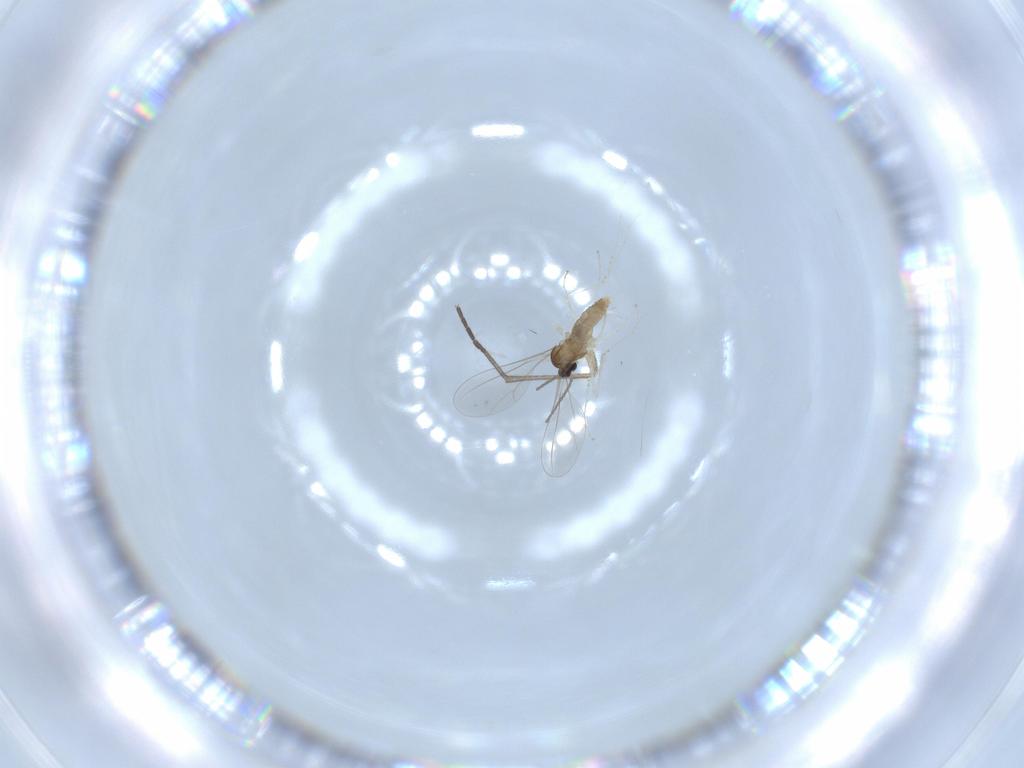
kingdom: Animalia
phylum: Arthropoda
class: Insecta
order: Diptera
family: Cecidomyiidae
